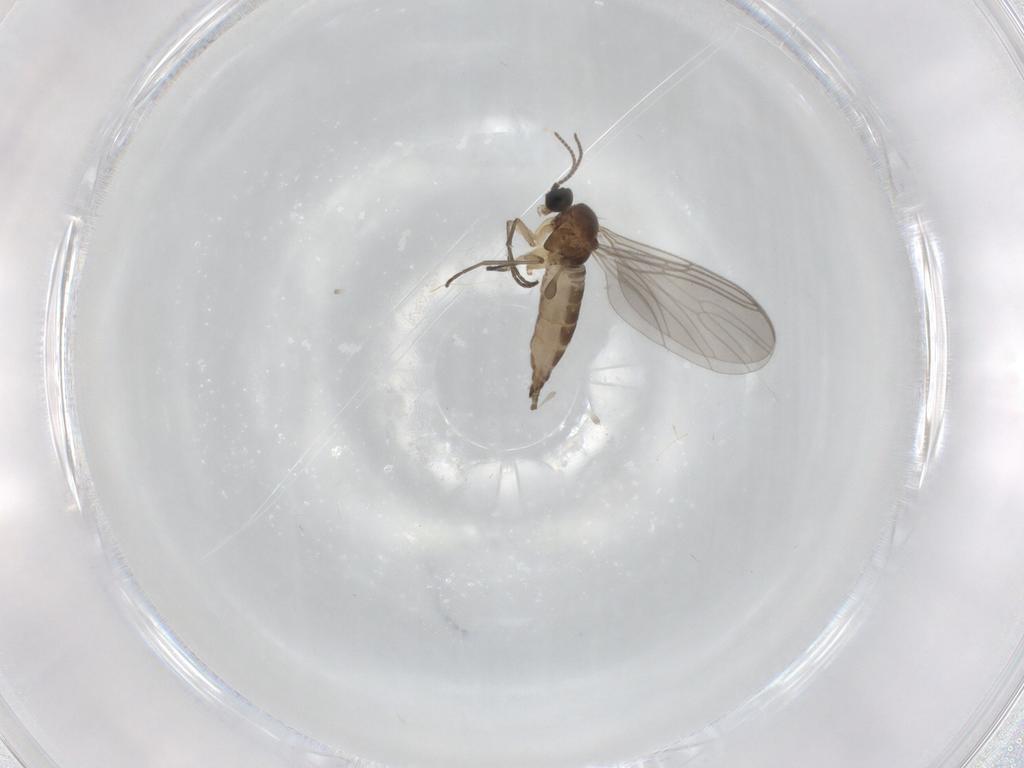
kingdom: Animalia
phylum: Arthropoda
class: Insecta
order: Diptera
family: Sciaridae
